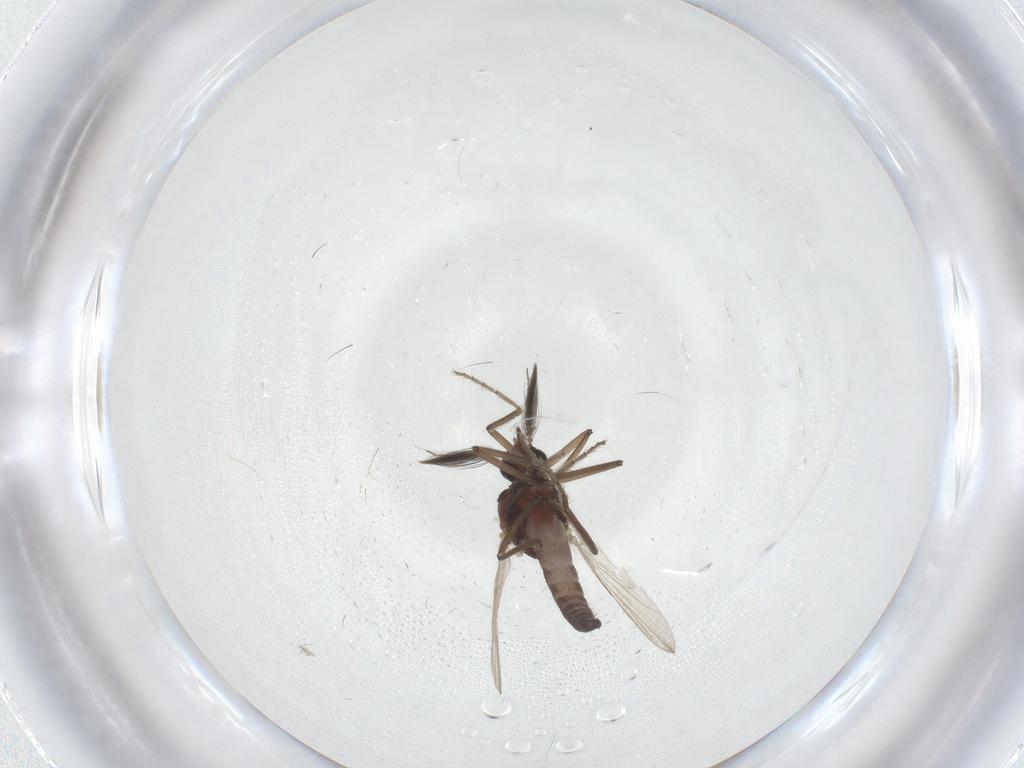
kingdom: Animalia
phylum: Arthropoda
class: Insecta
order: Diptera
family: Ceratopogonidae
